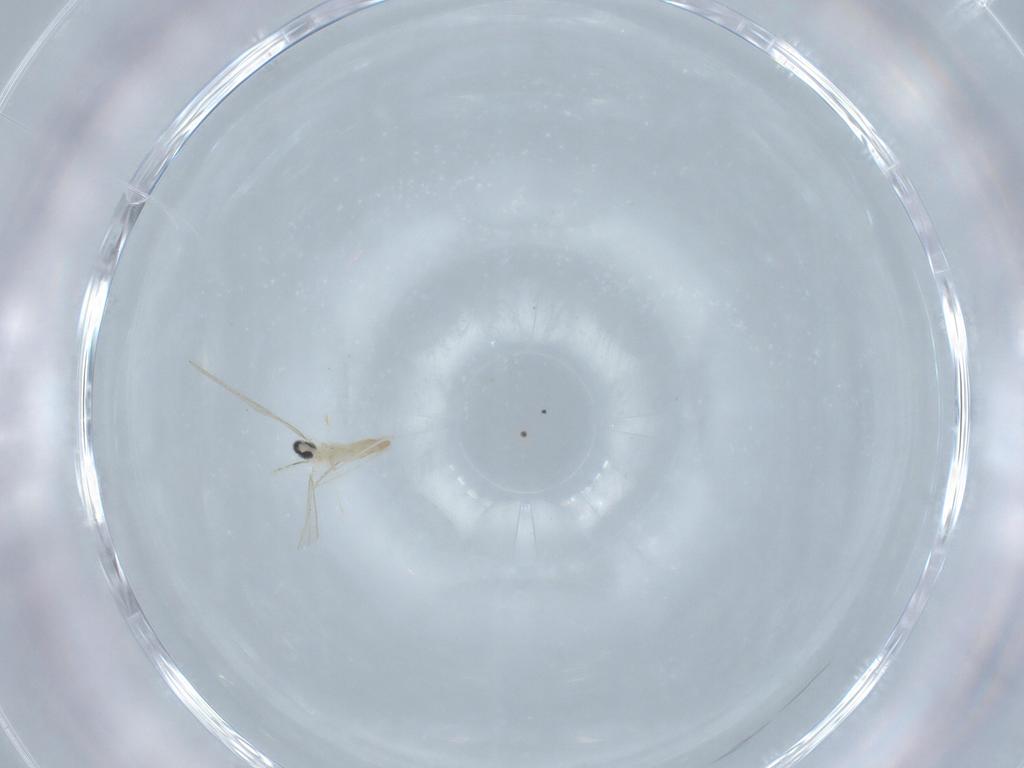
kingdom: Animalia
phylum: Arthropoda
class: Insecta
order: Diptera
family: Cecidomyiidae
